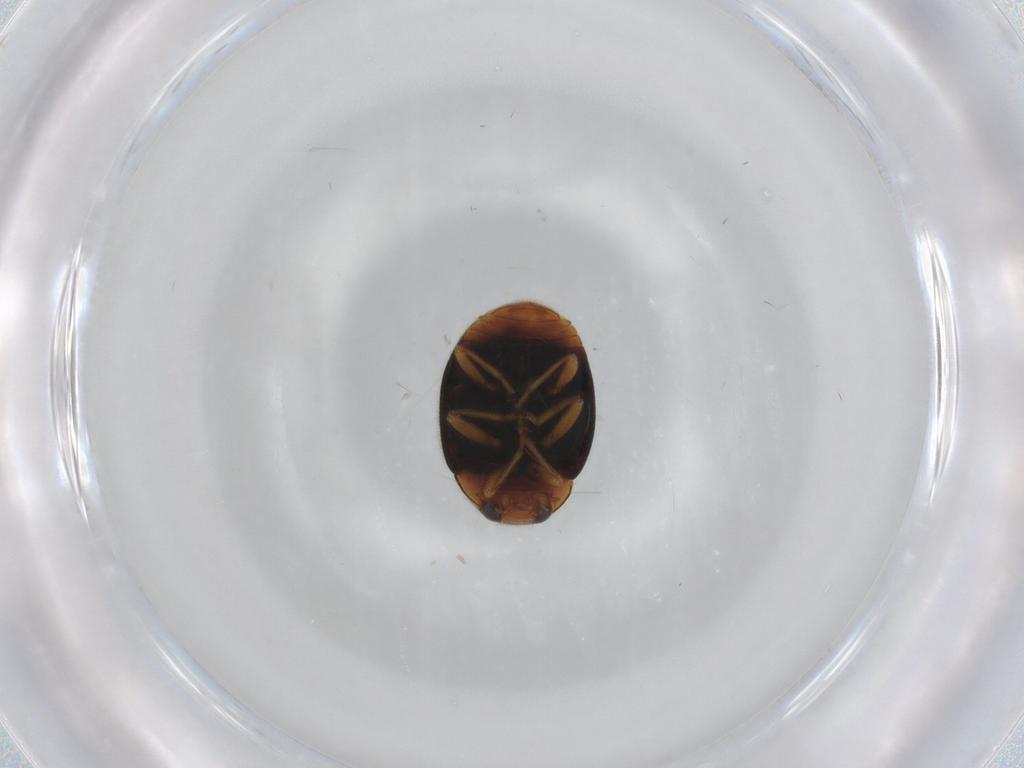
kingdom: Animalia
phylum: Arthropoda
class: Insecta
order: Coleoptera
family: Coccinellidae
